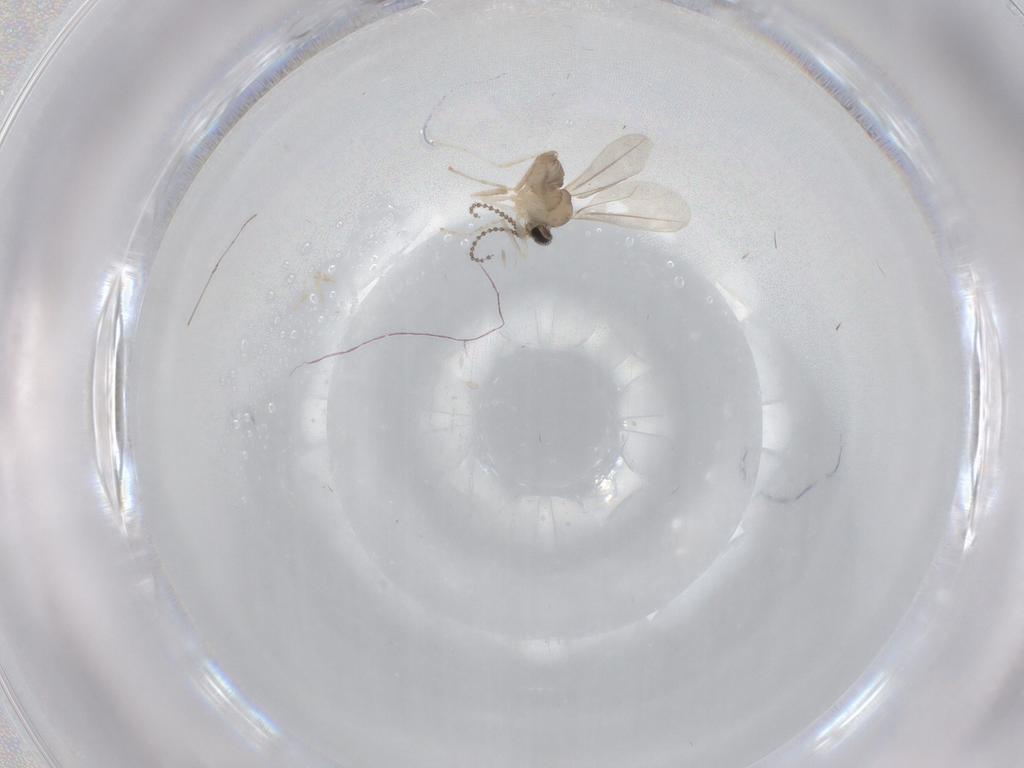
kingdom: Animalia
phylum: Arthropoda
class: Insecta
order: Diptera
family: Cecidomyiidae
